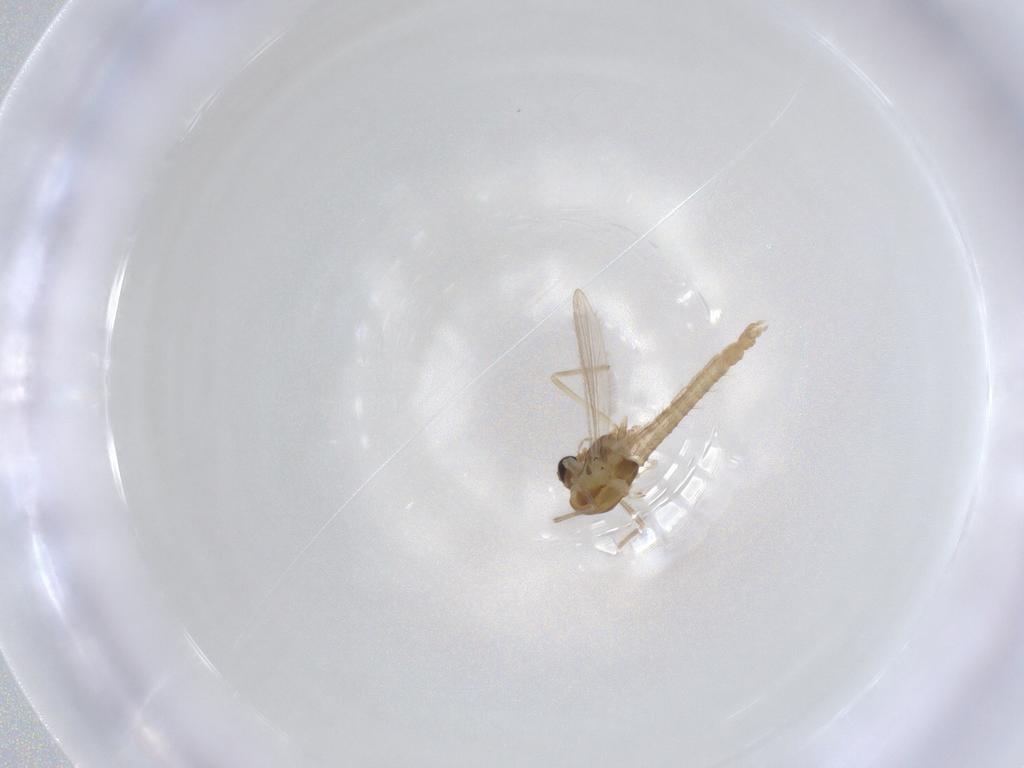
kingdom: Animalia
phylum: Arthropoda
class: Insecta
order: Diptera
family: Chironomidae
